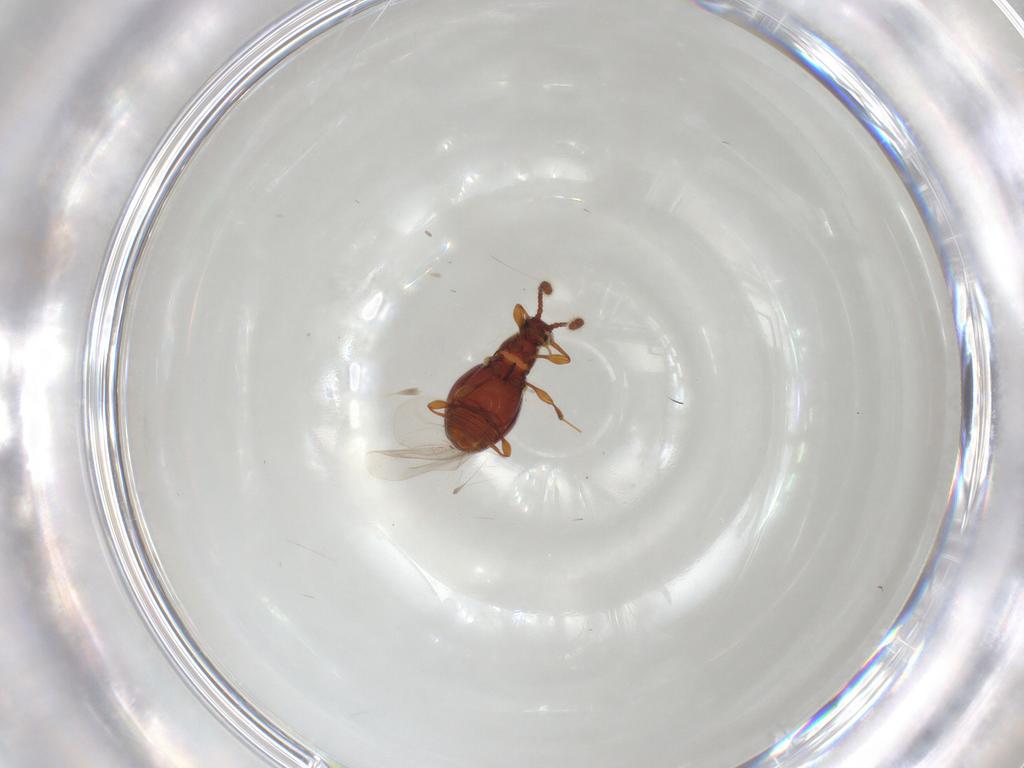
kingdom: Animalia
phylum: Arthropoda
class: Insecta
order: Coleoptera
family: Staphylinidae
